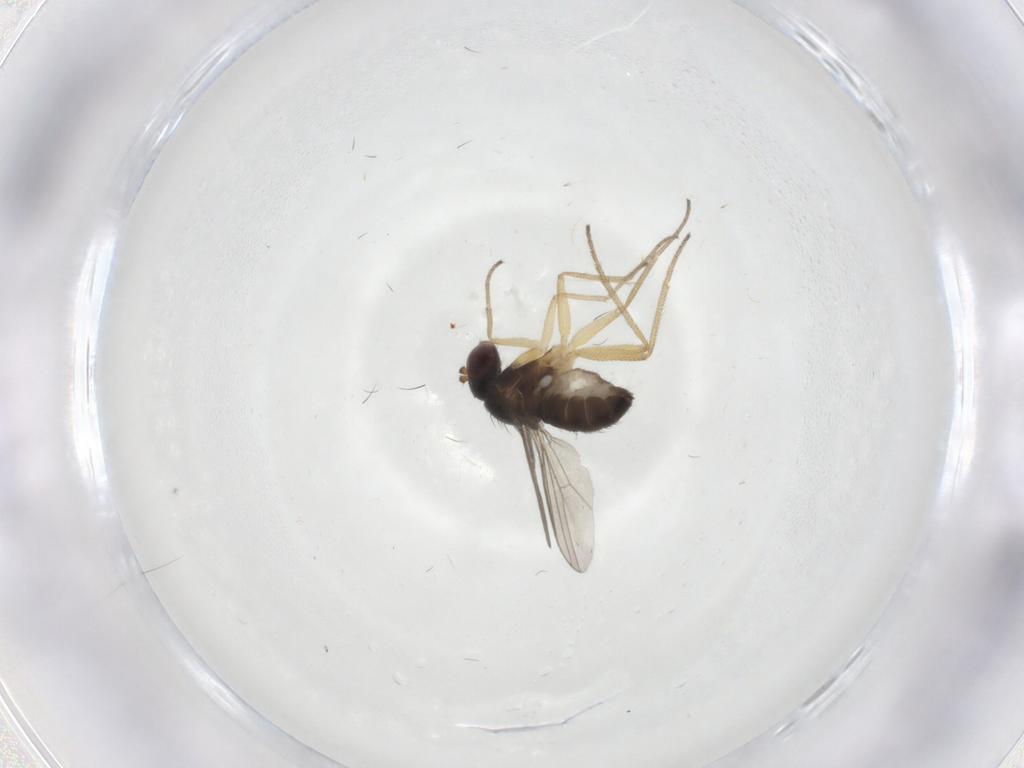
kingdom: Animalia
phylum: Arthropoda
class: Insecta
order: Diptera
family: Dolichopodidae
